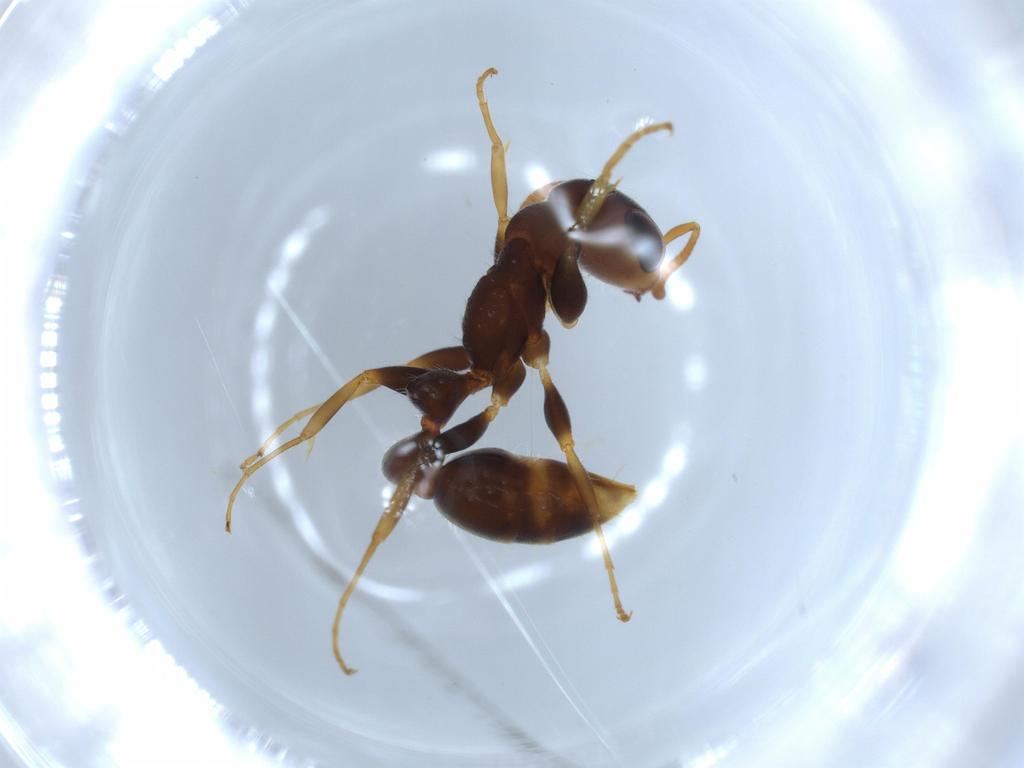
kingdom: Animalia
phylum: Arthropoda
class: Insecta
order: Hymenoptera
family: Formicidae
